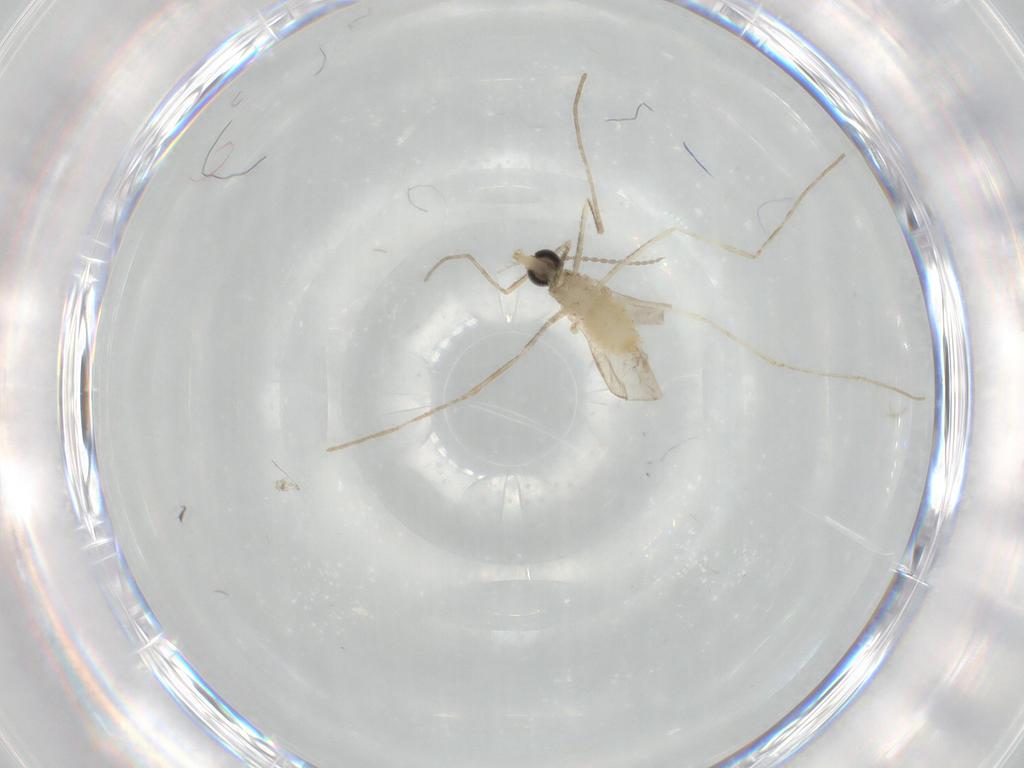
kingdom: Animalia
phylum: Arthropoda
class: Insecta
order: Diptera
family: Cecidomyiidae
